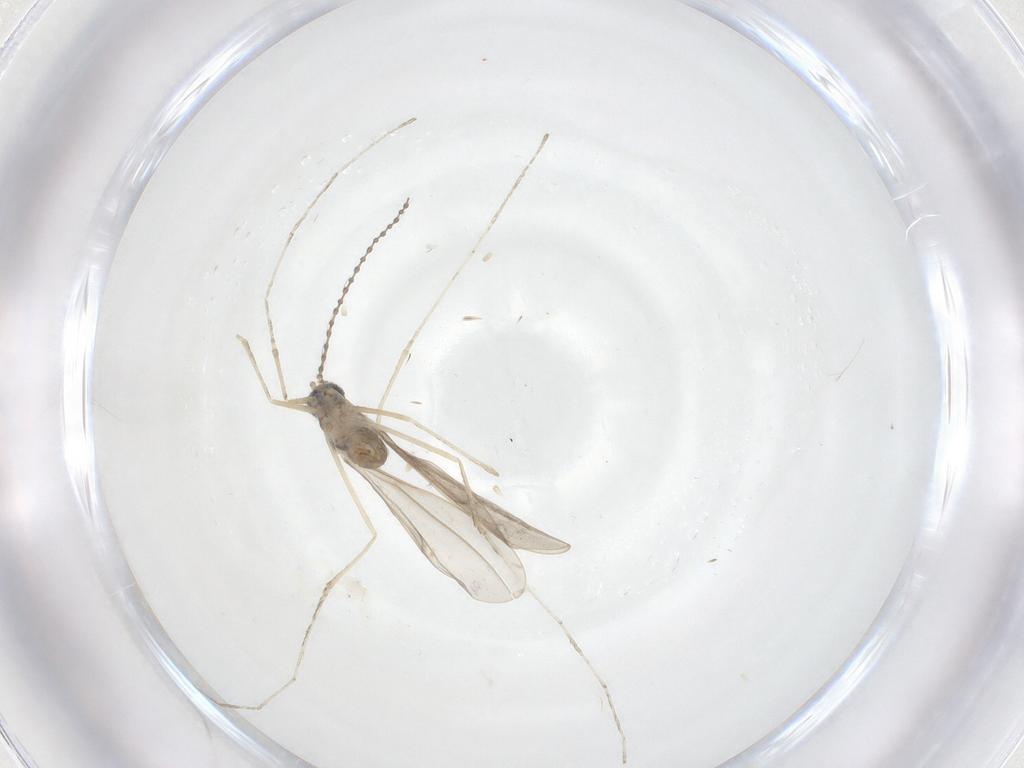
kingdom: Animalia
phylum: Arthropoda
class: Insecta
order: Diptera
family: Cecidomyiidae
